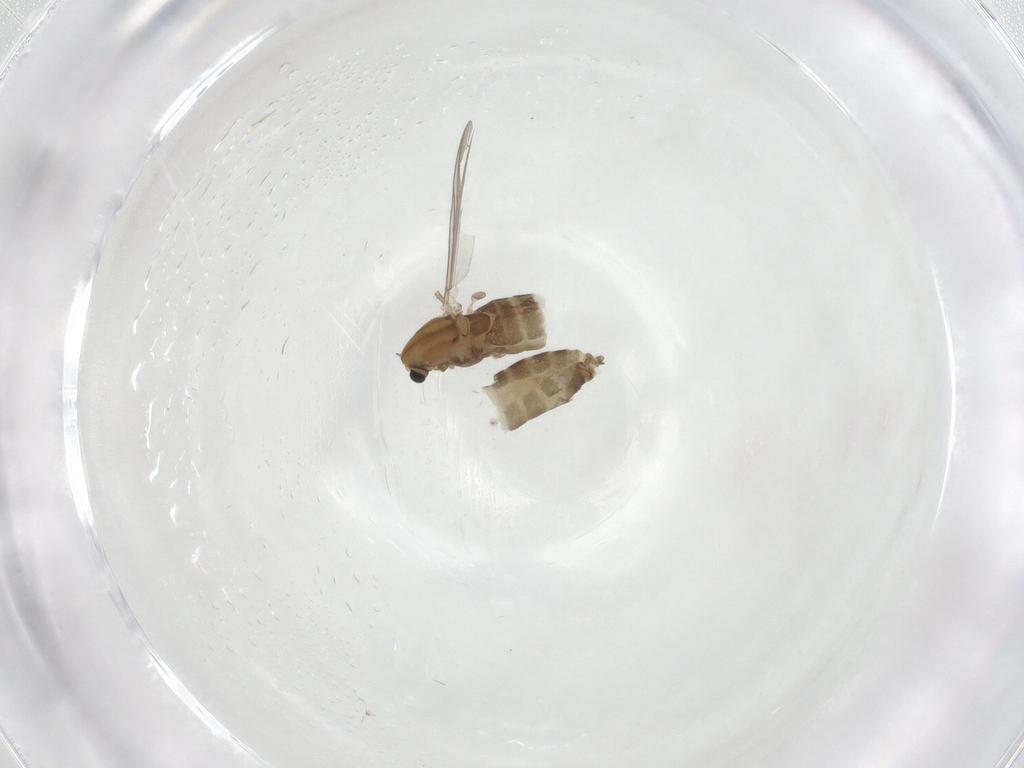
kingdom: Animalia
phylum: Arthropoda
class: Insecta
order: Diptera
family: Chironomidae
